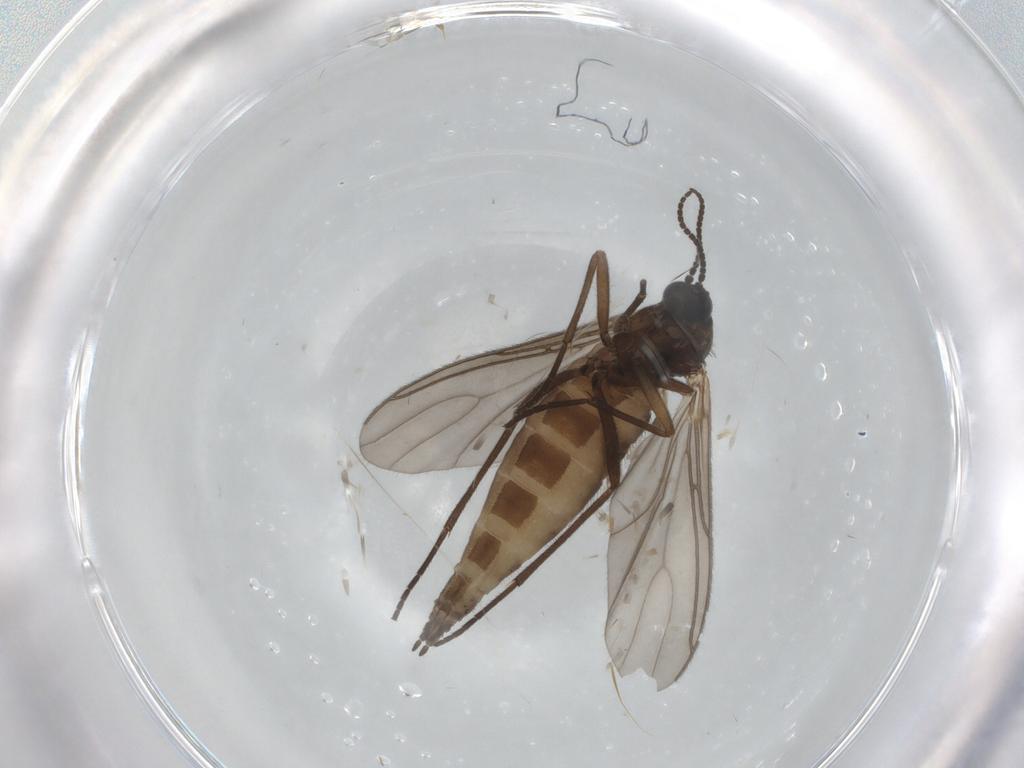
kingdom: Animalia
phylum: Arthropoda
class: Insecta
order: Diptera
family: Sciaridae
